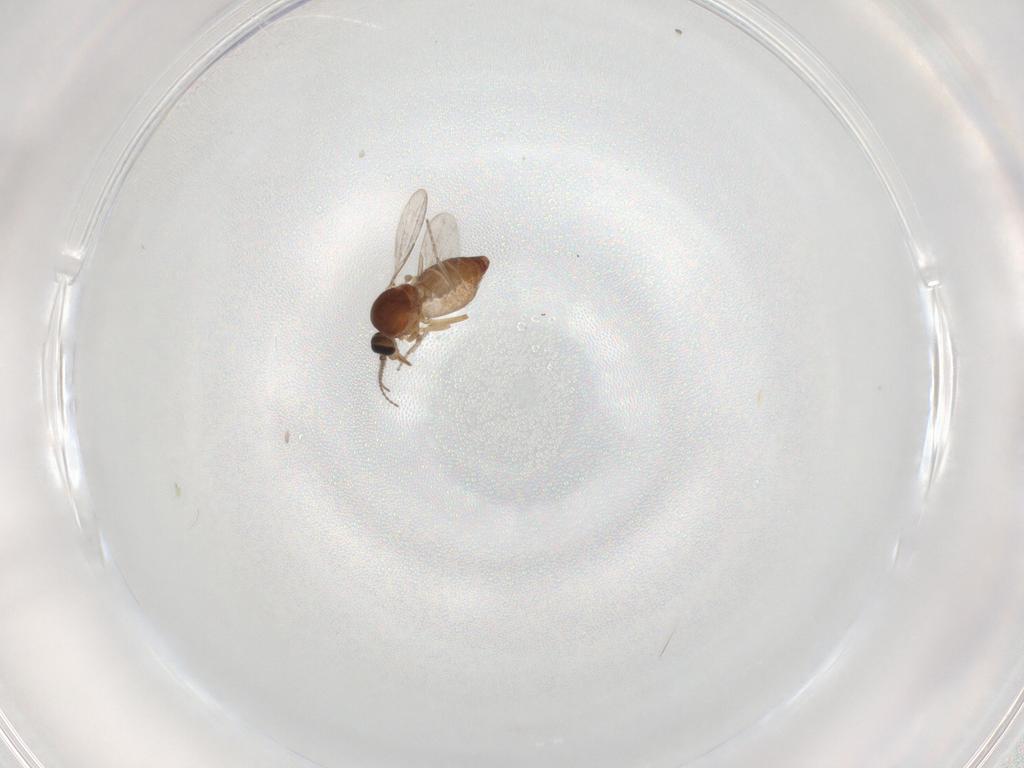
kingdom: Animalia
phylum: Arthropoda
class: Insecta
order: Diptera
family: Ceratopogonidae
